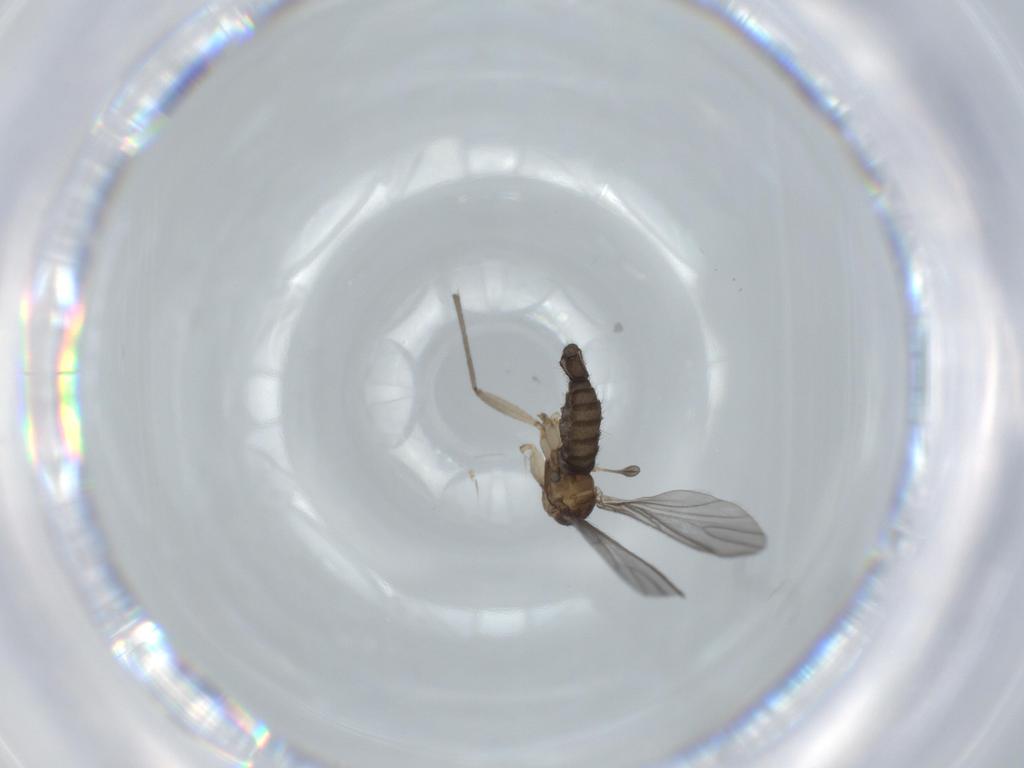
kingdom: Animalia
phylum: Arthropoda
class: Insecta
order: Diptera
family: Sciaridae
